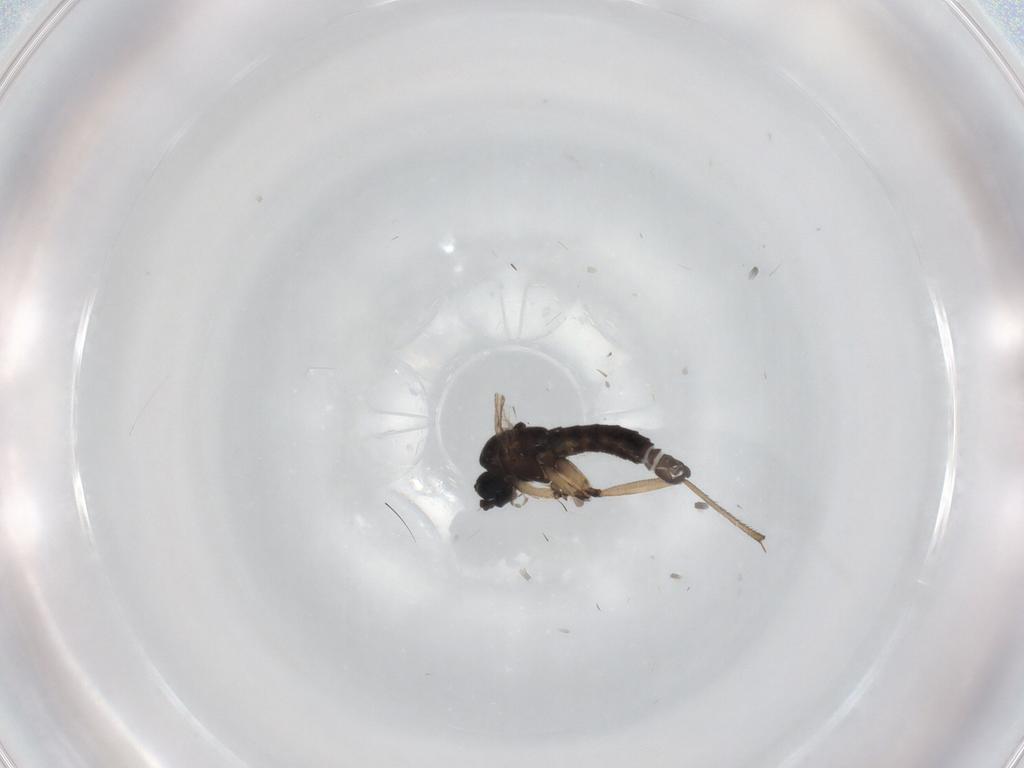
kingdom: Animalia
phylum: Arthropoda
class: Insecta
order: Diptera
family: Sciaridae
